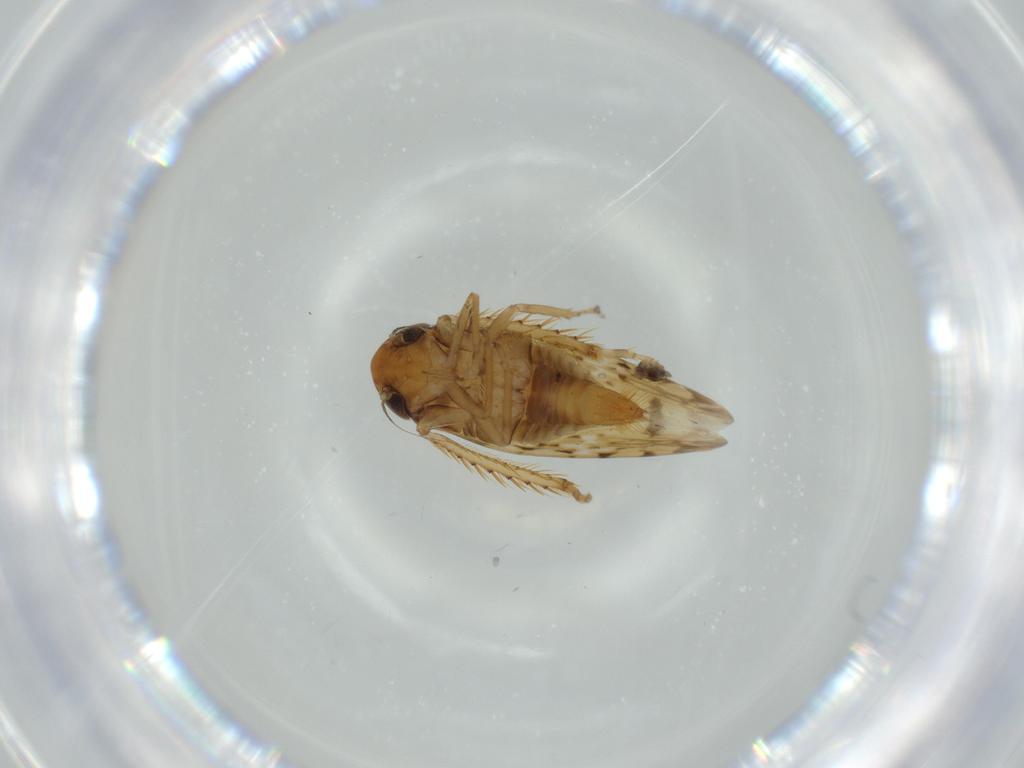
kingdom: Animalia
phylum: Arthropoda
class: Insecta
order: Hemiptera
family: Cicadellidae
